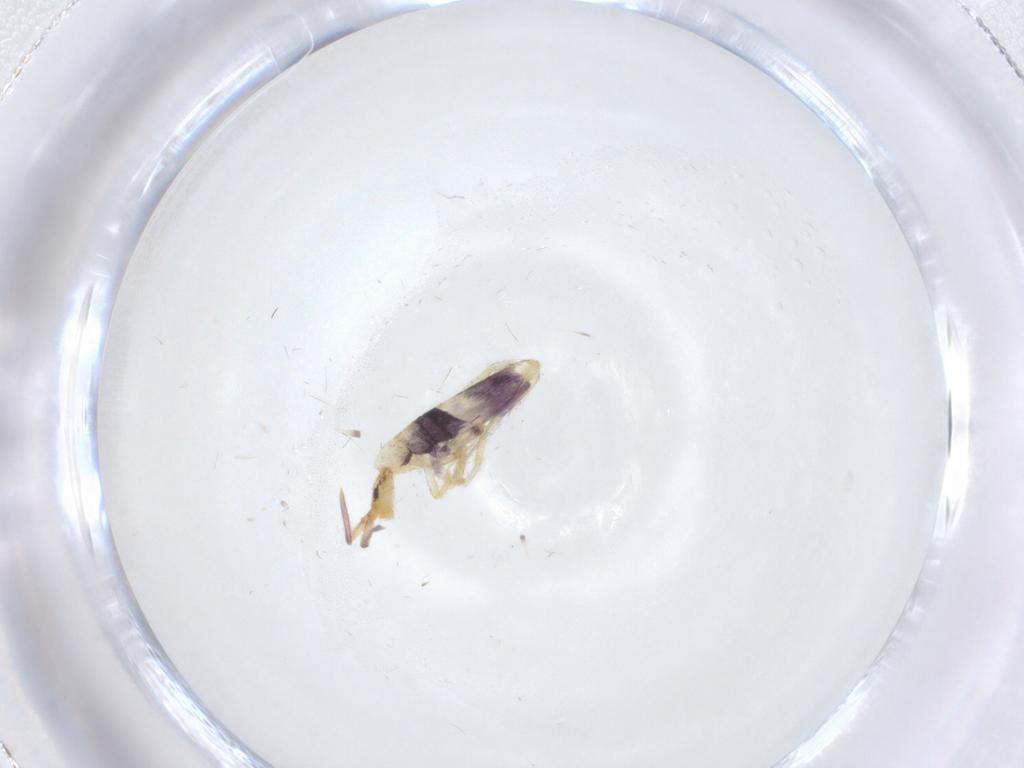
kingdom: Animalia
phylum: Arthropoda
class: Collembola
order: Entomobryomorpha
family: Entomobryidae
